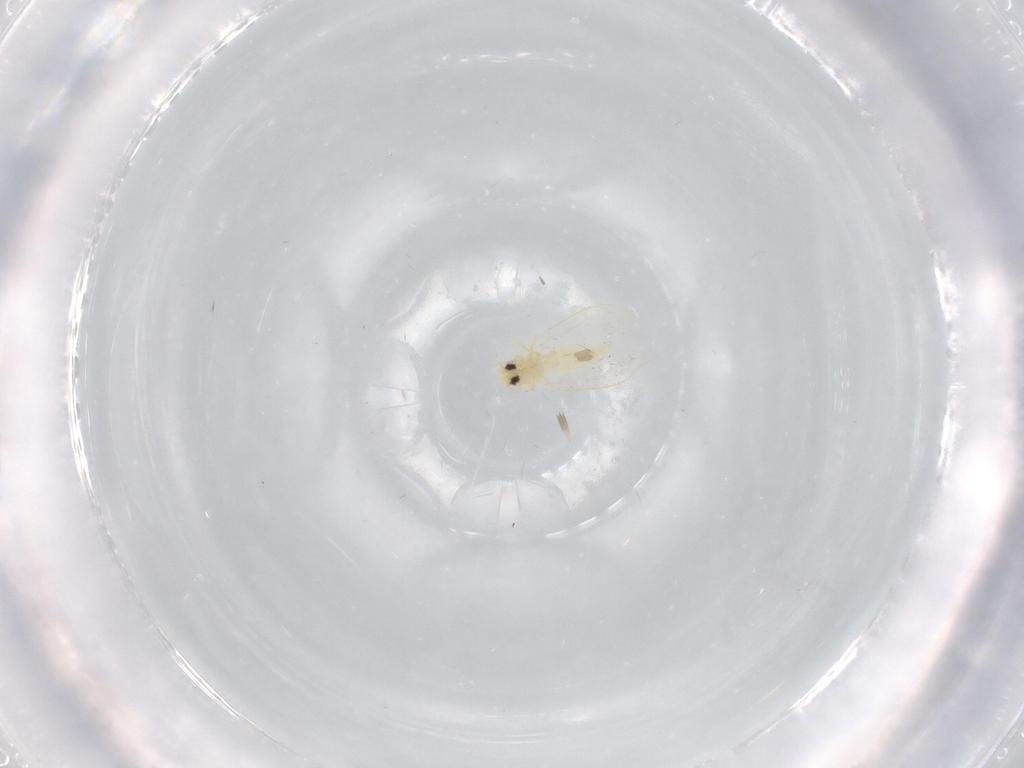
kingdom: Animalia
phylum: Arthropoda
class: Insecta
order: Hemiptera
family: Aleyrodidae
